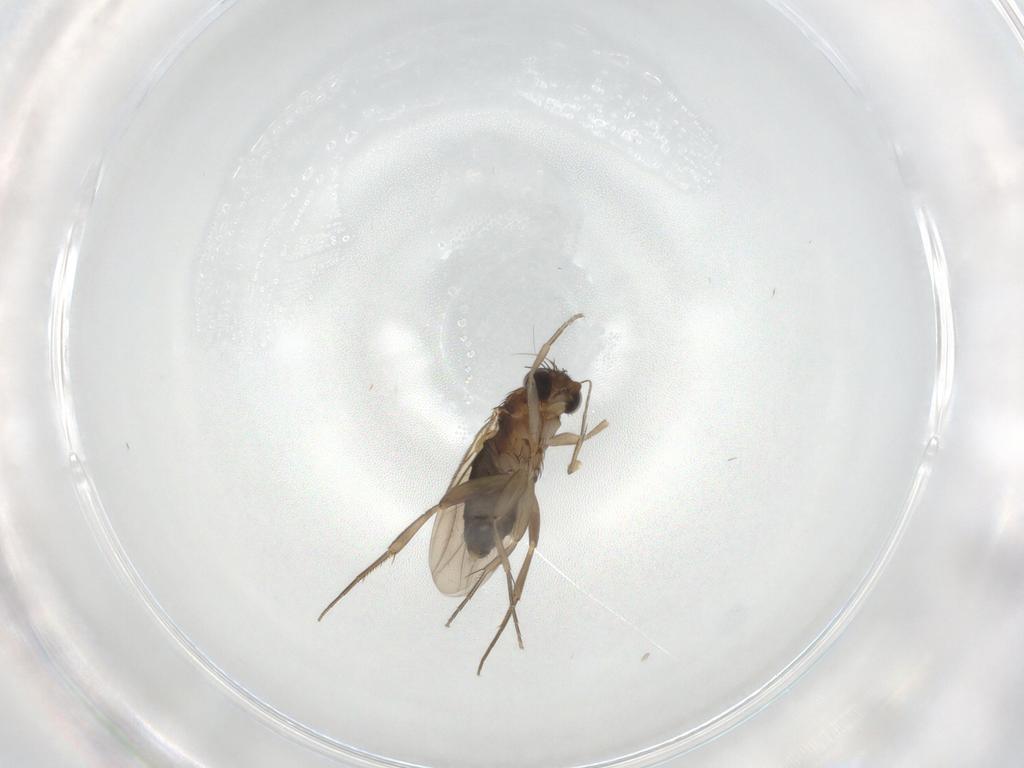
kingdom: Animalia
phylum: Arthropoda
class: Insecta
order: Diptera
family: Phoridae
